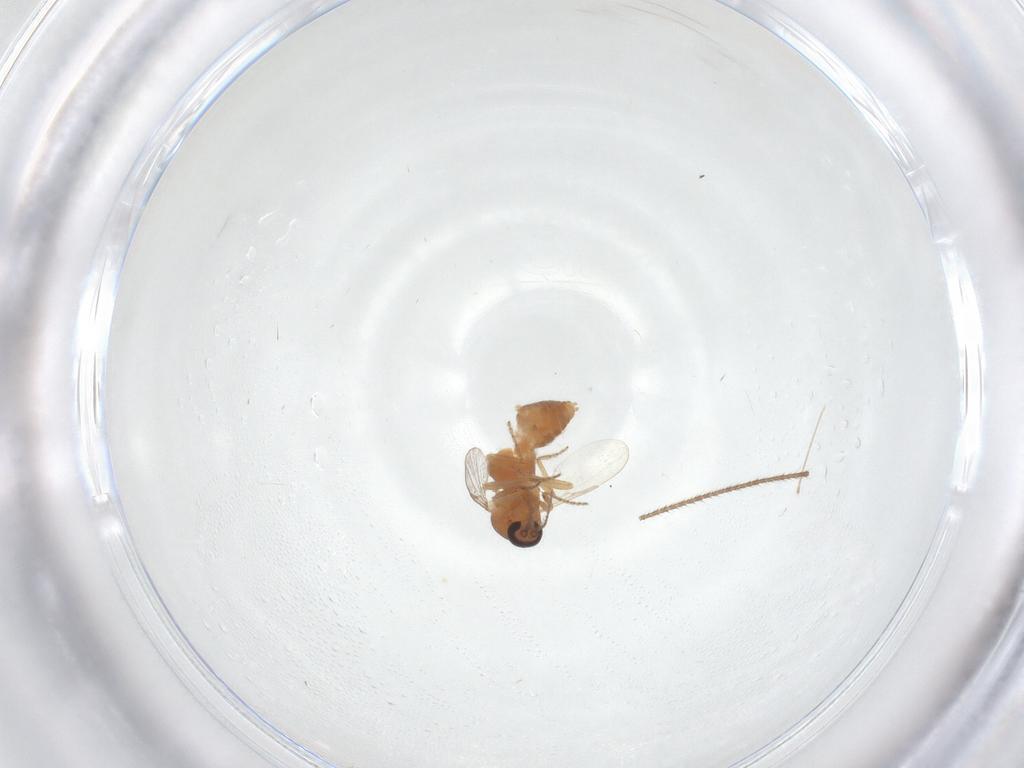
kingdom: Animalia
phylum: Arthropoda
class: Insecta
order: Diptera
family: Ceratopogonidae
